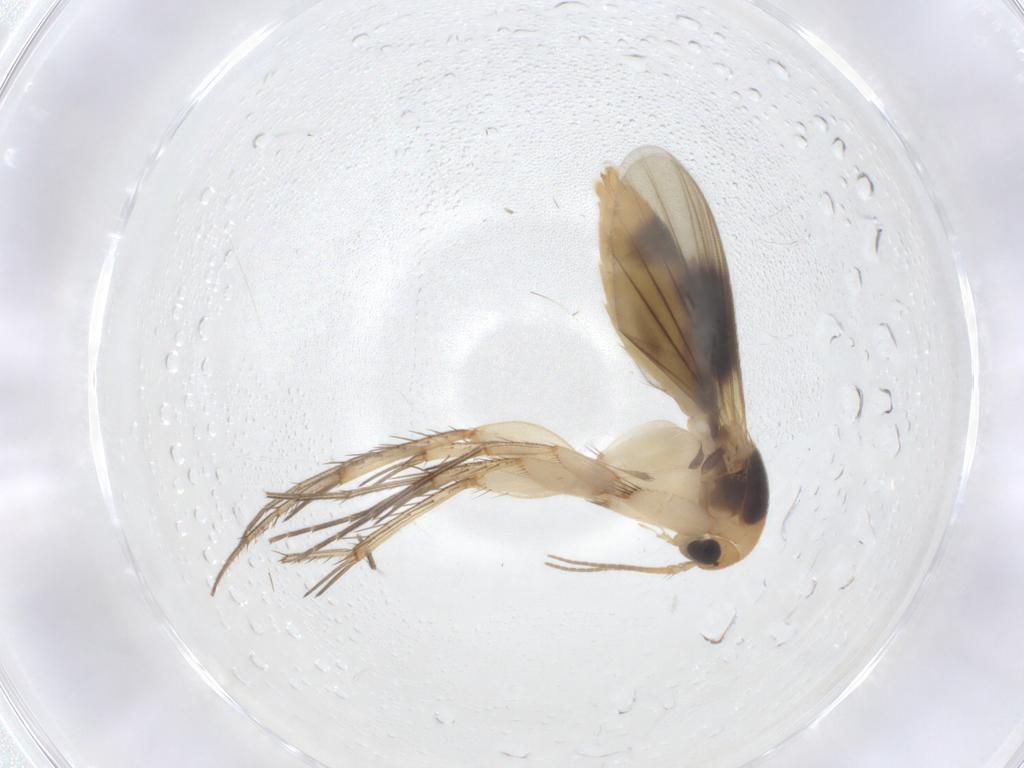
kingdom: Animalia
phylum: Arthropoda
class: Insecta
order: Diptera
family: Mycetophilidae
